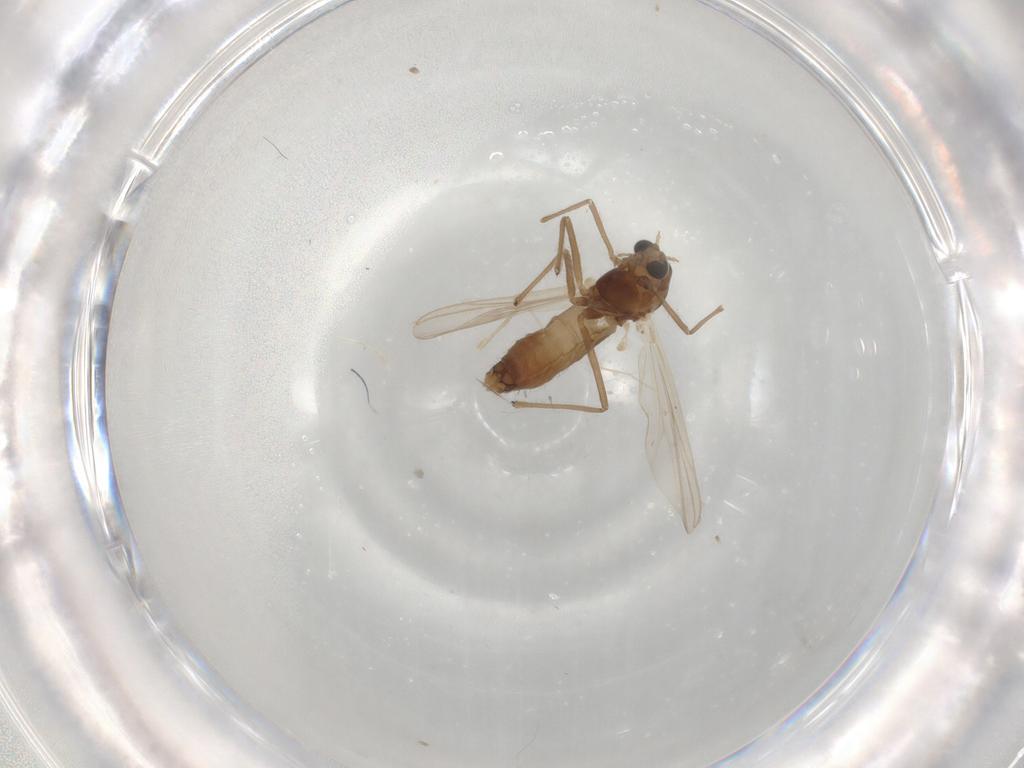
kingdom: Animalia
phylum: Arthropoda
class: Insecta
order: Diptera
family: Chironomidae
